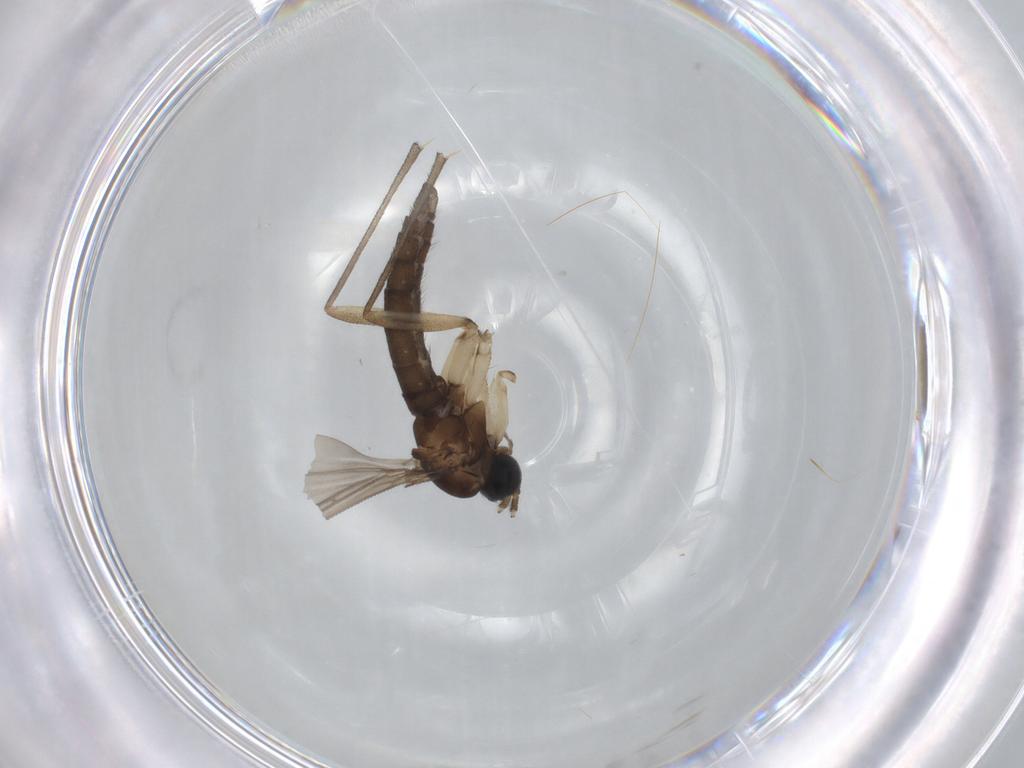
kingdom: Animalia
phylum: Arthropoda
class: Insecta
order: Diptera
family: Sciaridae
